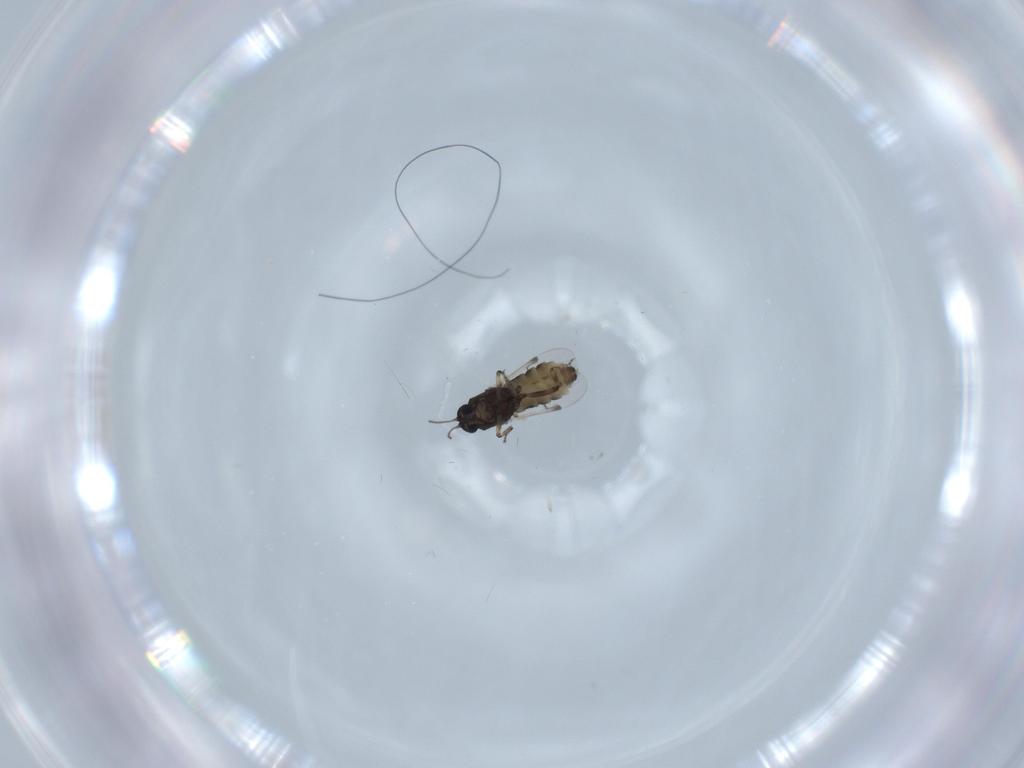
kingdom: Animalia
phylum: Arthropoda
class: Insecta
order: Diptera
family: Ceratopogonidae
